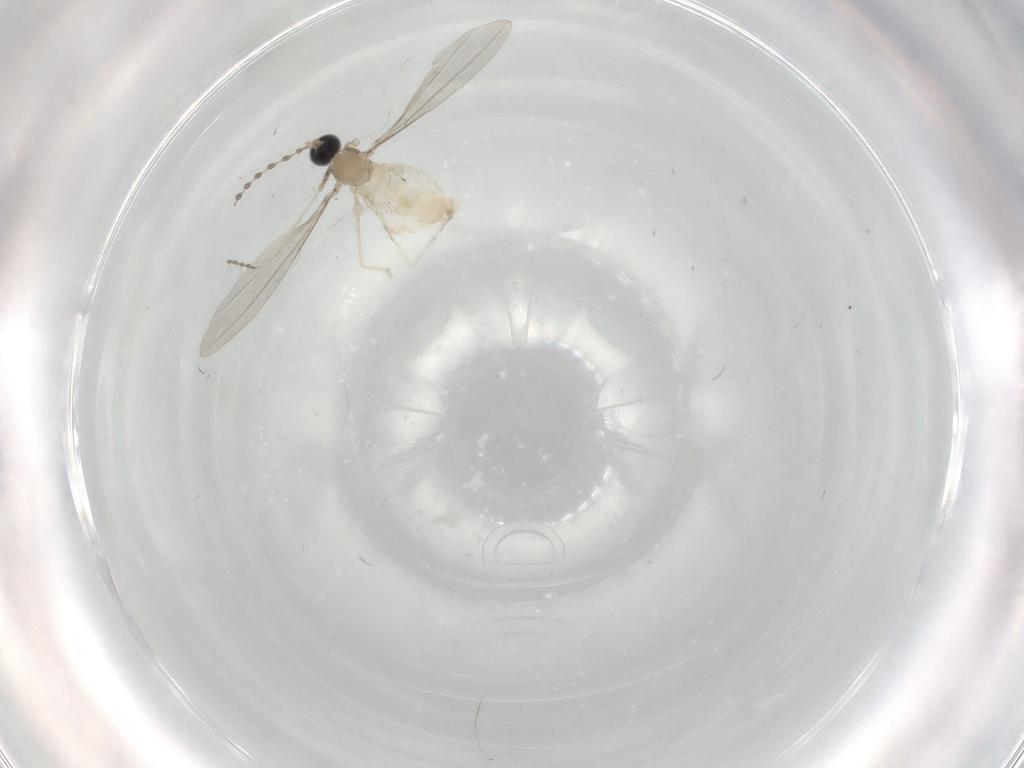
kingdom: Animalia
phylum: Arthropoda
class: Insecta
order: Diptera
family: Cecidomyiidae
